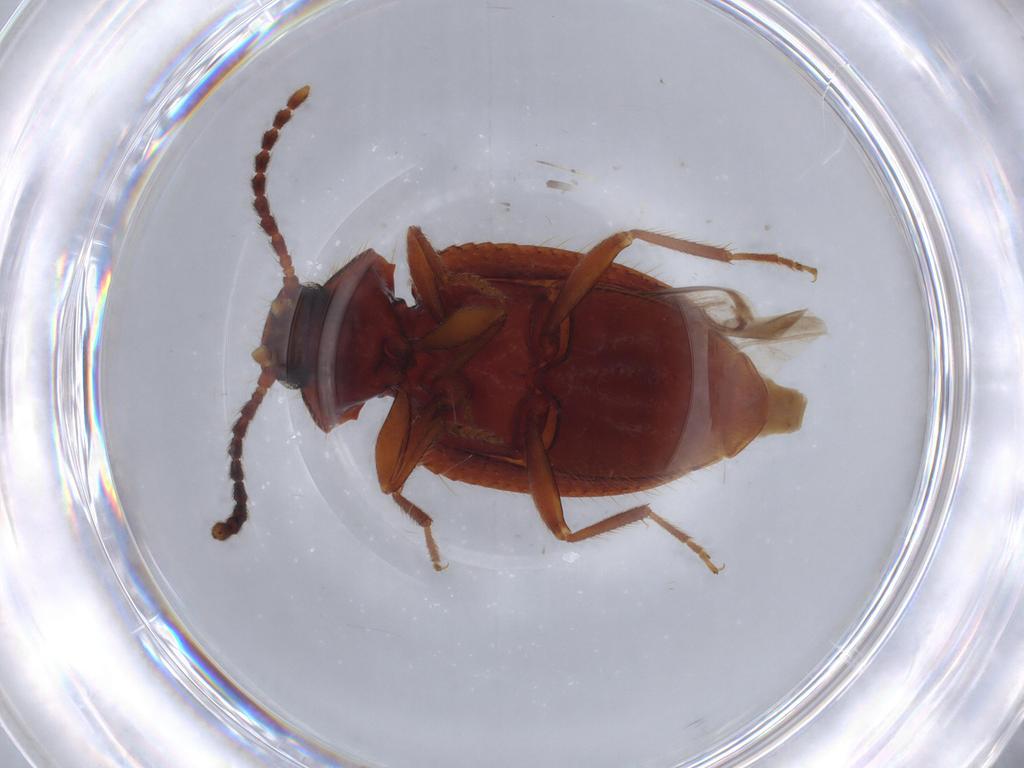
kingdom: Animalia
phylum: Arthropoda
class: Insecta
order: Coleoptera
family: Tenebrionidae
